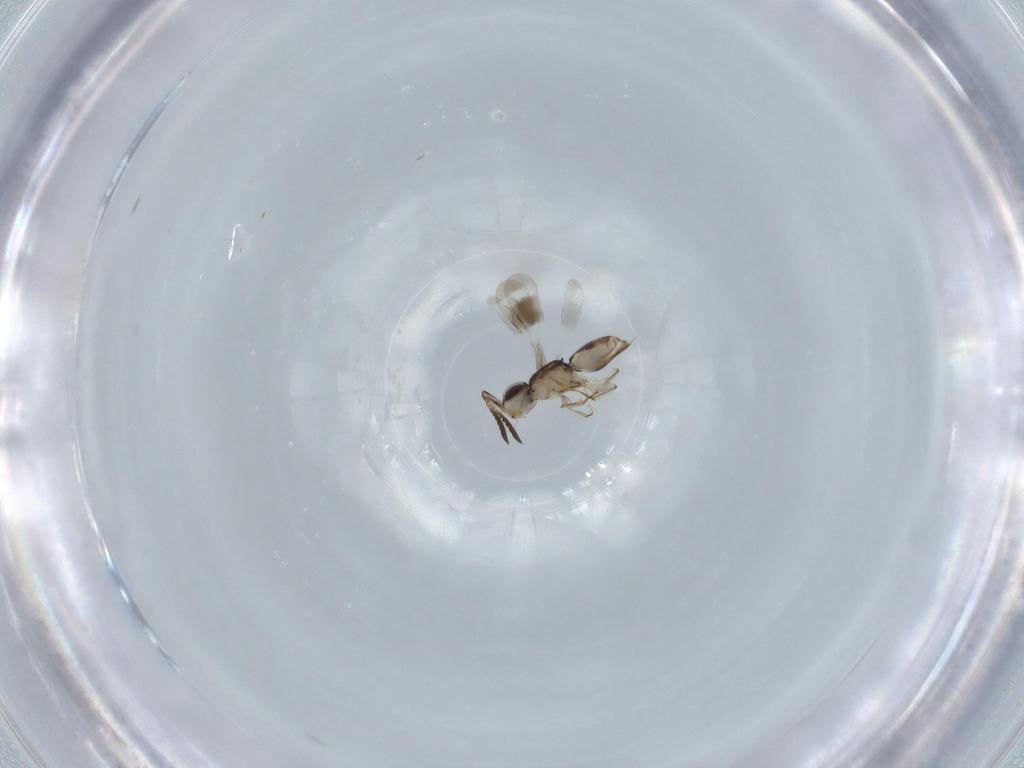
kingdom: Animalia
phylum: Arthropoda
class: Insecta
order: Hymenoptera
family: Ceraphronidae
